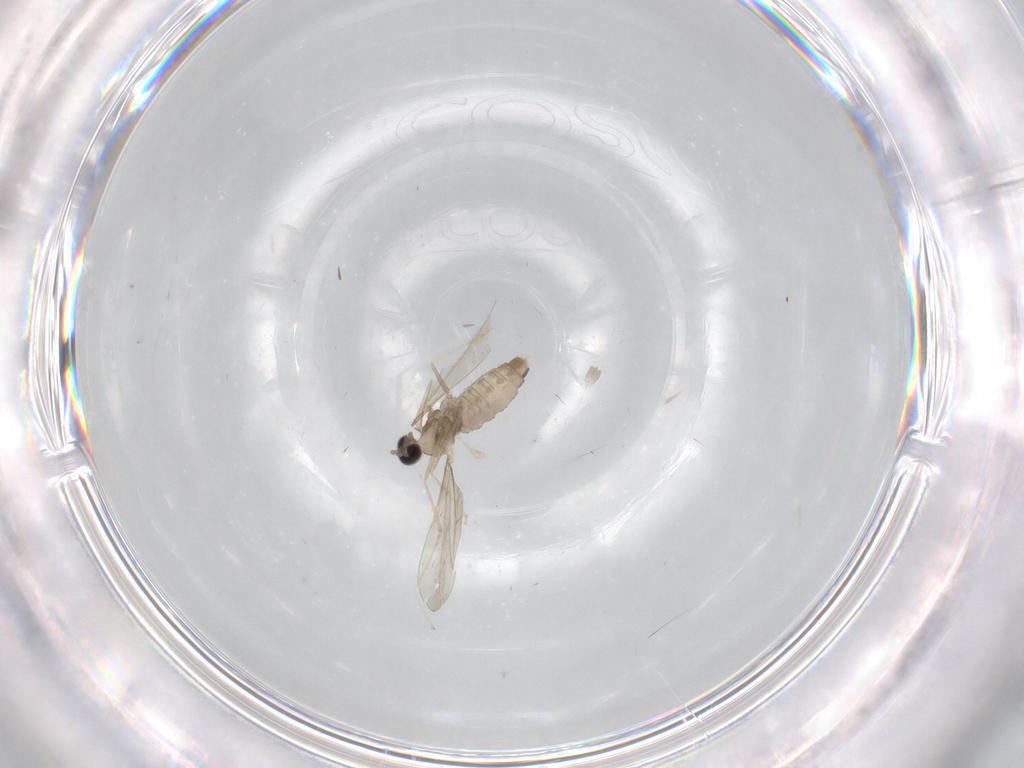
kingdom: Animalia
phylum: Arthropoda
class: Insecta
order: Diptera
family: Cecidomyiidae
